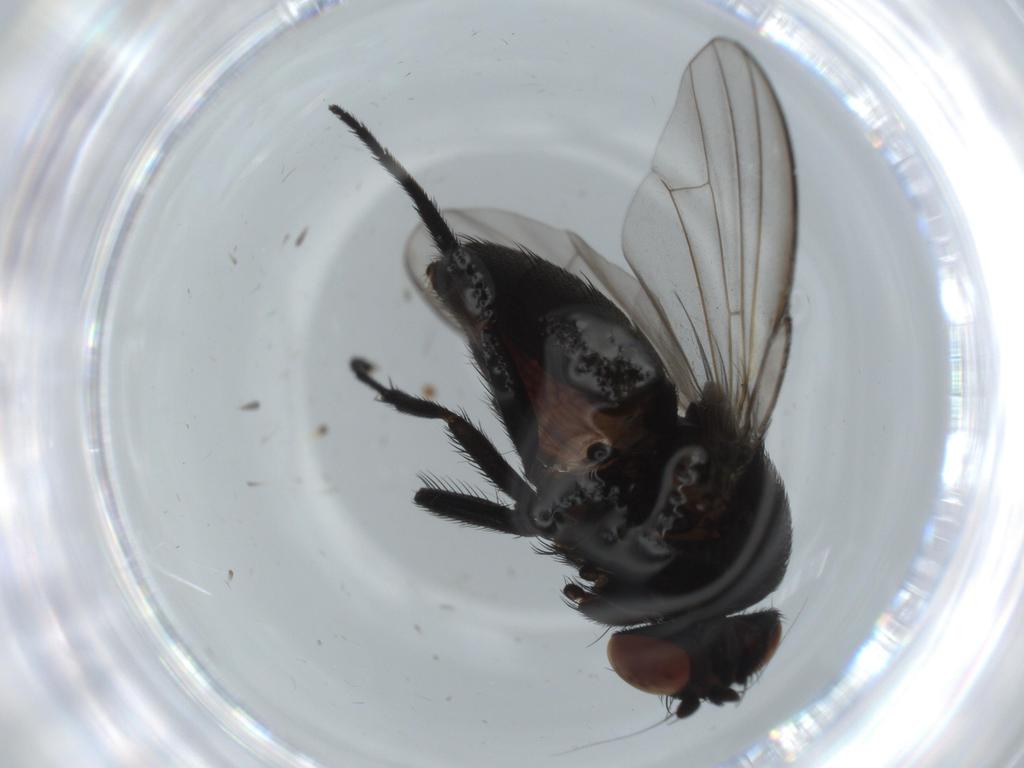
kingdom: Animalia
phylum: Arthropoda
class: Insecta
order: Diptera
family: Milichiidae
